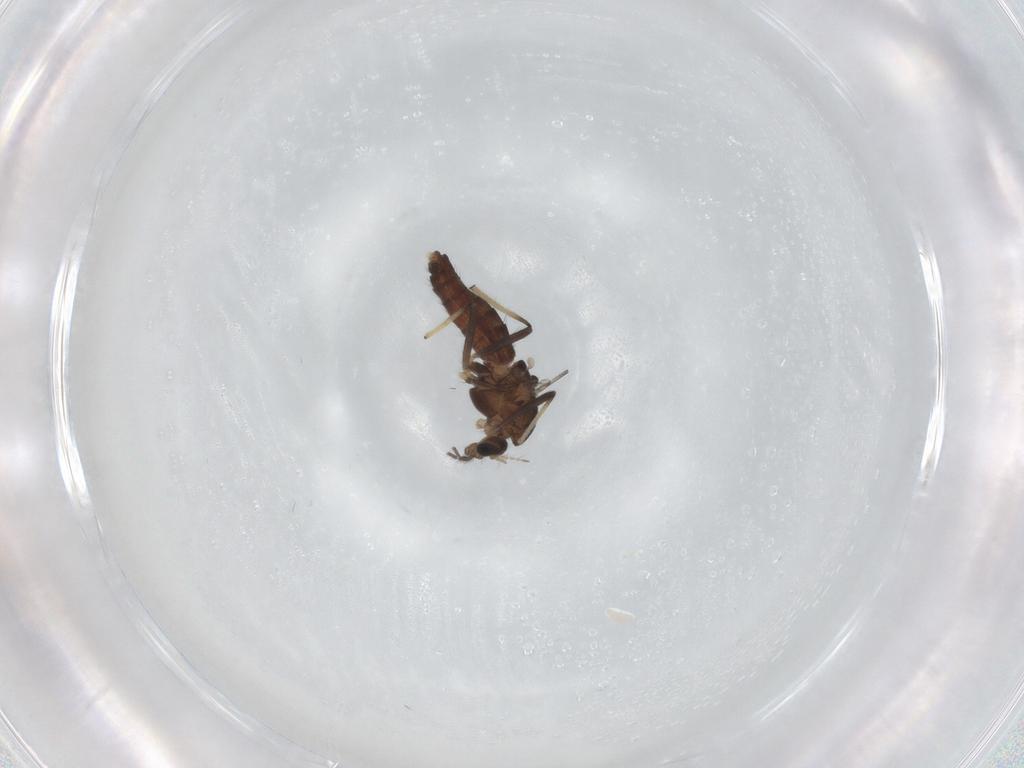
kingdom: Animalia
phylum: Arthropoda
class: Insecta
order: Diptera
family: Chironomidae
